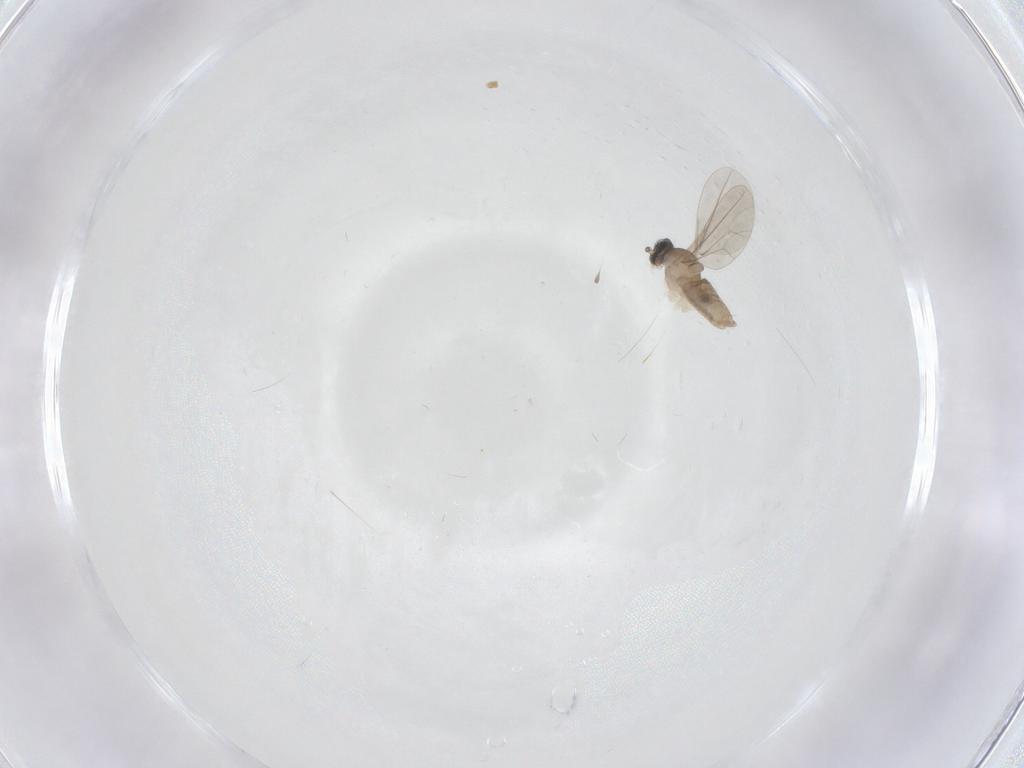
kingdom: Animalia
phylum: Arthropoda
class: Insecta
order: Diptera
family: Cecidomyiidae
